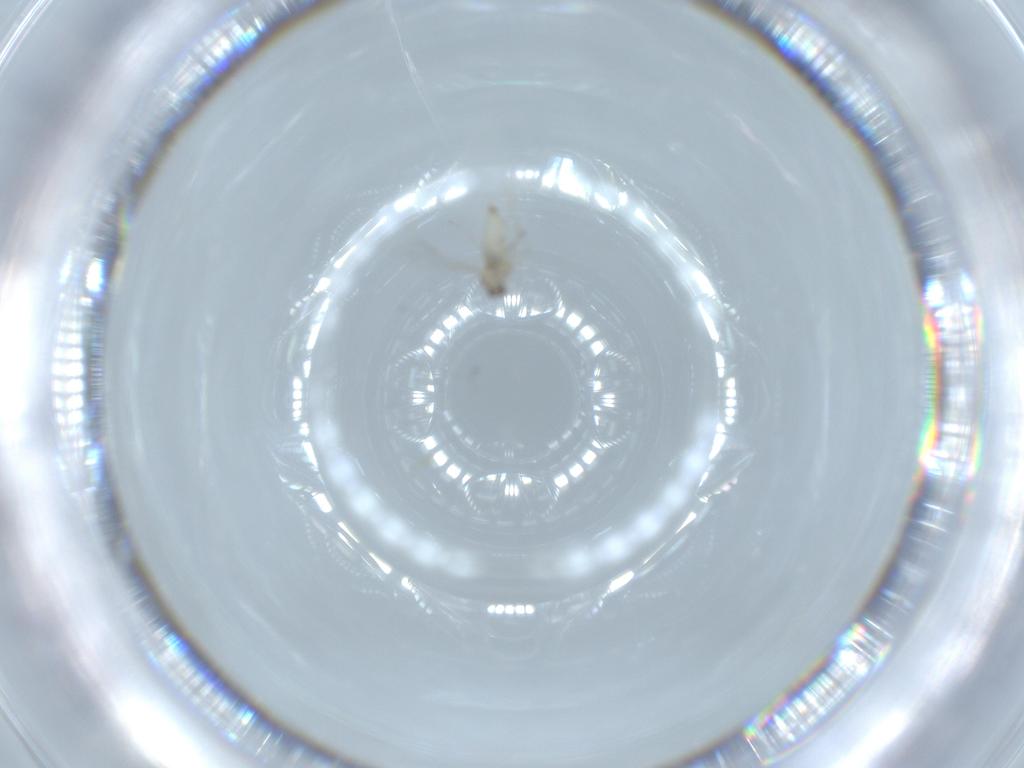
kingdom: Animalia
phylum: Arthropoda
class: Insecta
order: Diptera
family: Cecidomyiidae
